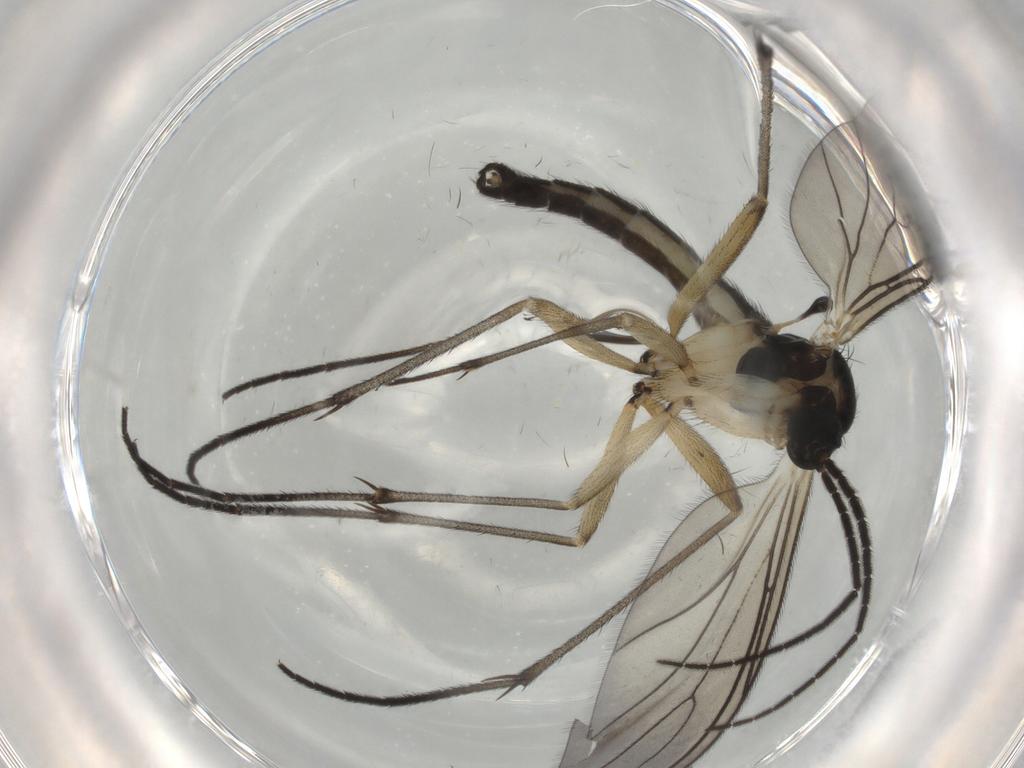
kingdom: Animalia
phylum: Arthropoda
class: Insecta
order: Diptera
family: Sciaridae
